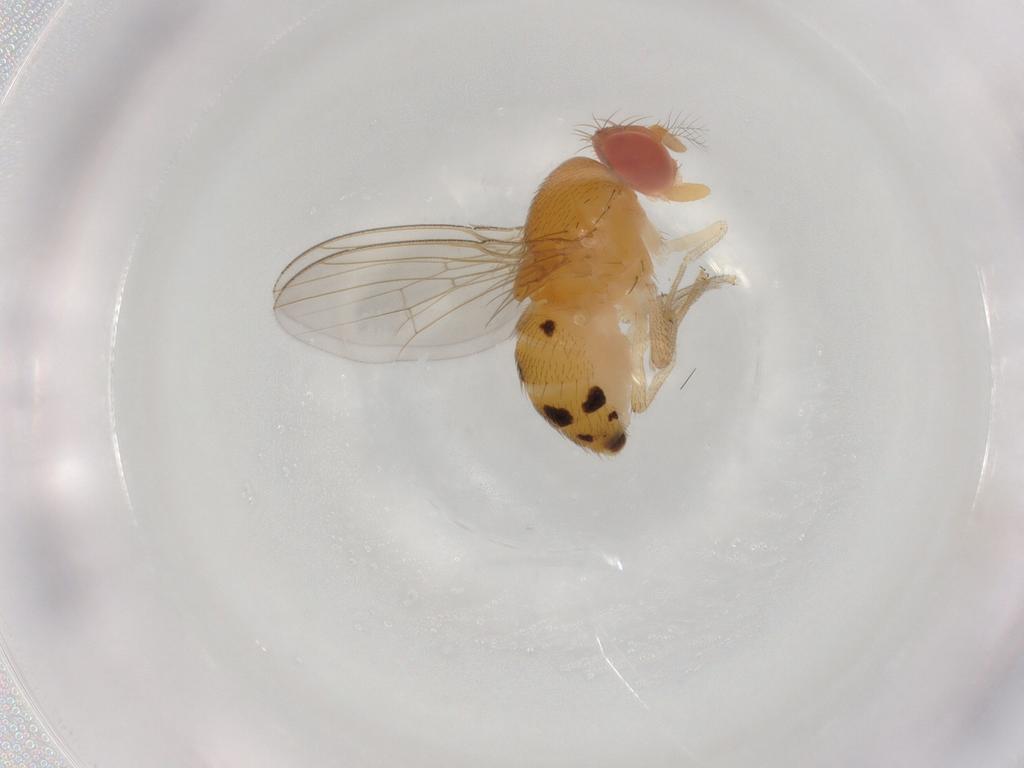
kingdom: Animalia
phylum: Arthropoda
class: Insecta
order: Diptera
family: Drosophilidae
